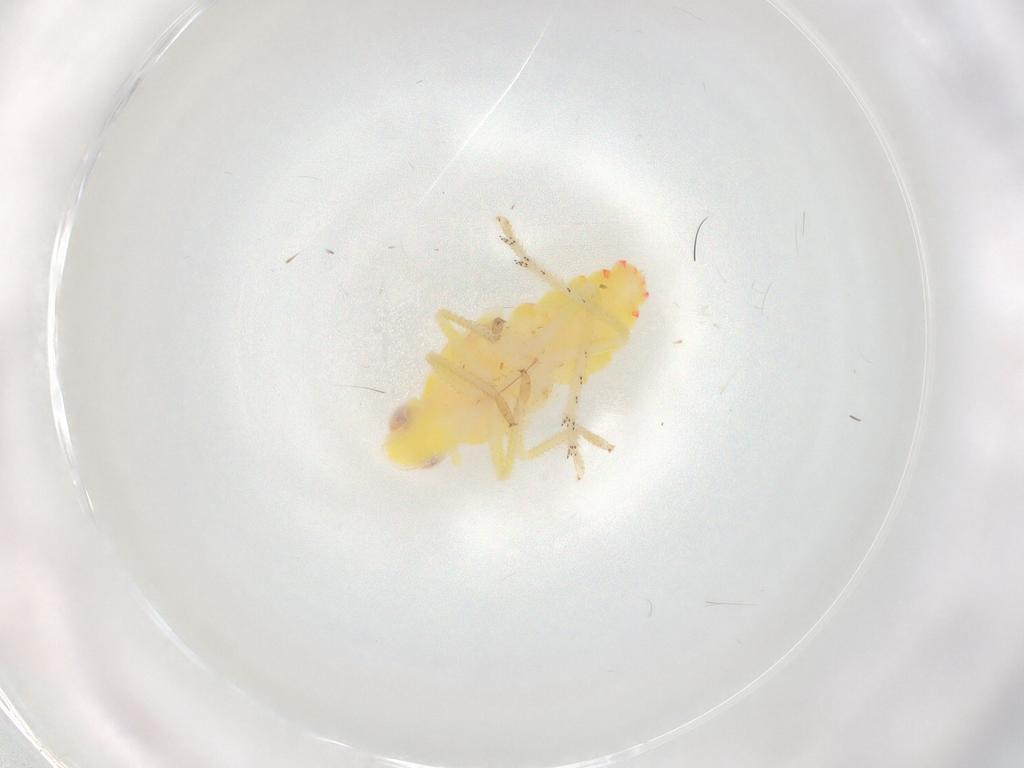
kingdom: Animalia
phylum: Arthropoda
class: Insecta
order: Hemiptera
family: Tropiduchidae
